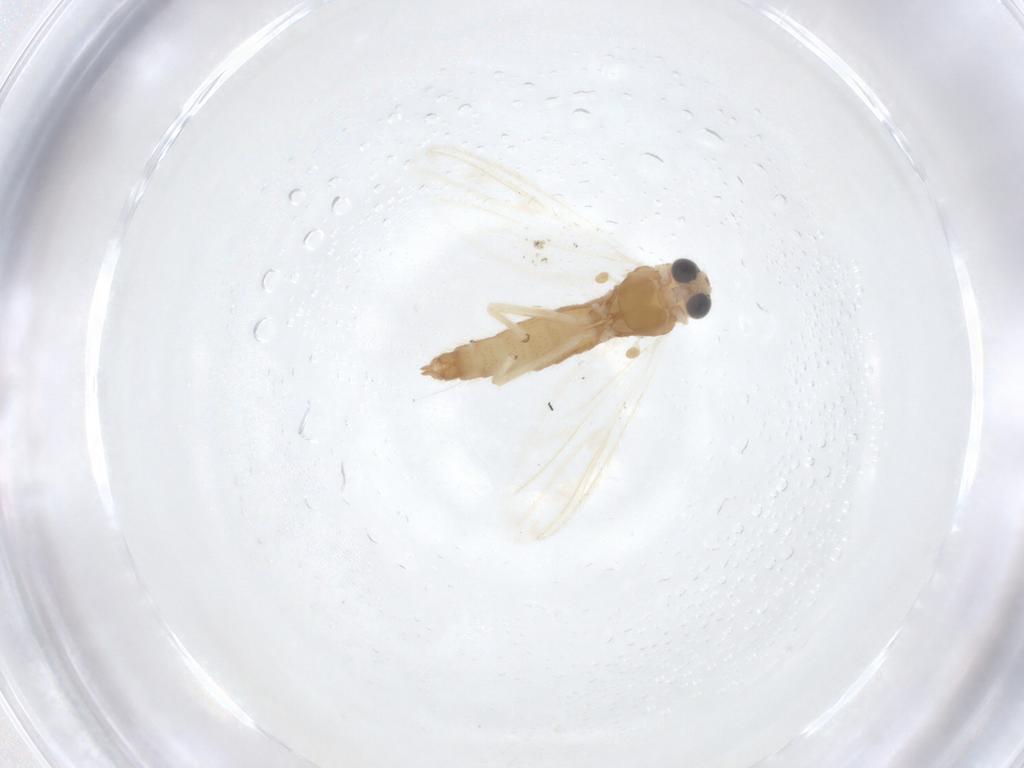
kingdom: Animalia
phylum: Arthropoda
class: Insecta
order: Diptera
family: Chironomidae
